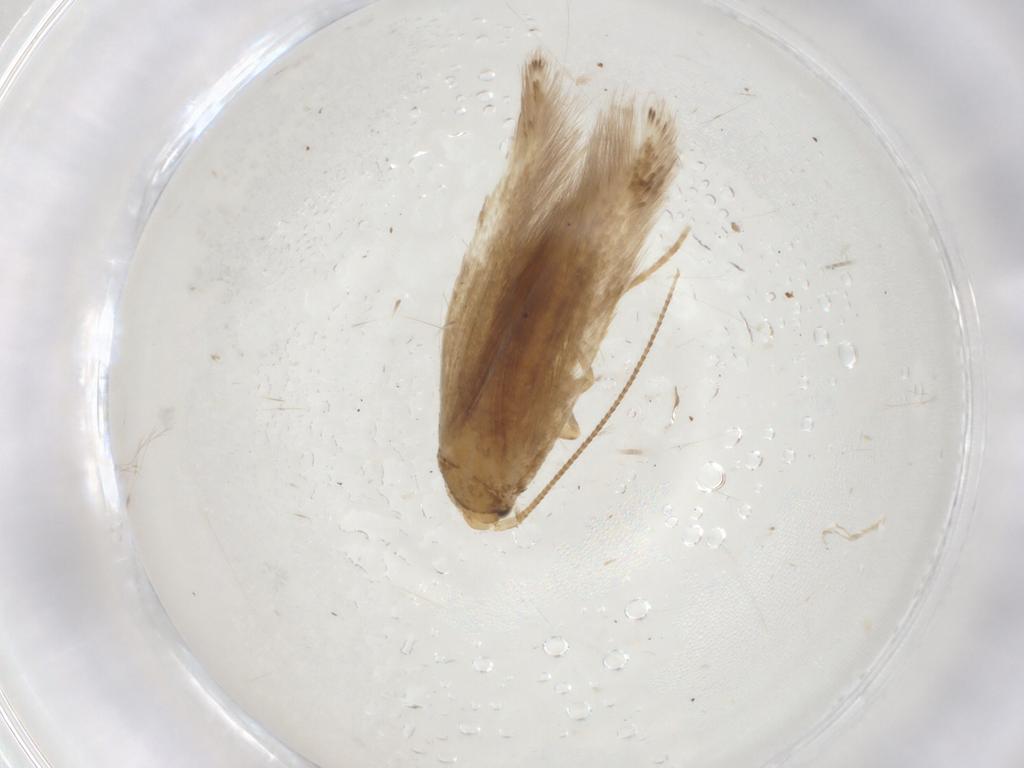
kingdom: Animalia
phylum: Arthropoda
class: Insecta
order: Lepidoptera
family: Tineidae
